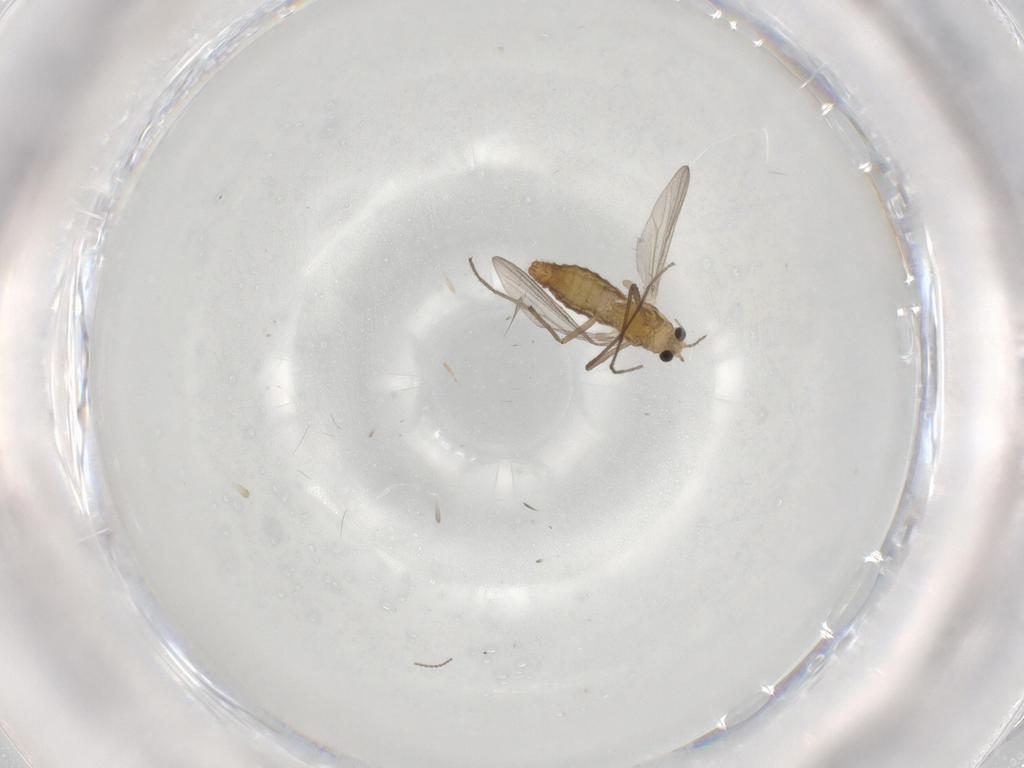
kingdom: Animalia
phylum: Arthropoda
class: Insecta
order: Diptera
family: Chironomidae
